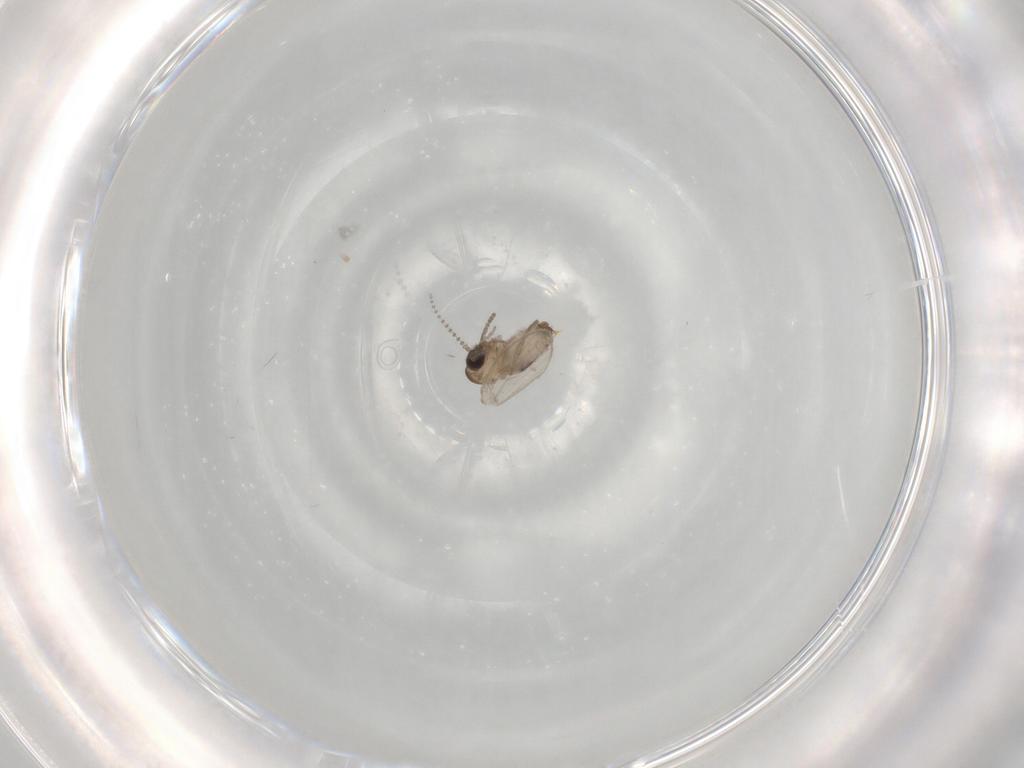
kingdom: Animalia
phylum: Arthropoda
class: Insecta
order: Diptera
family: Psychodidae
